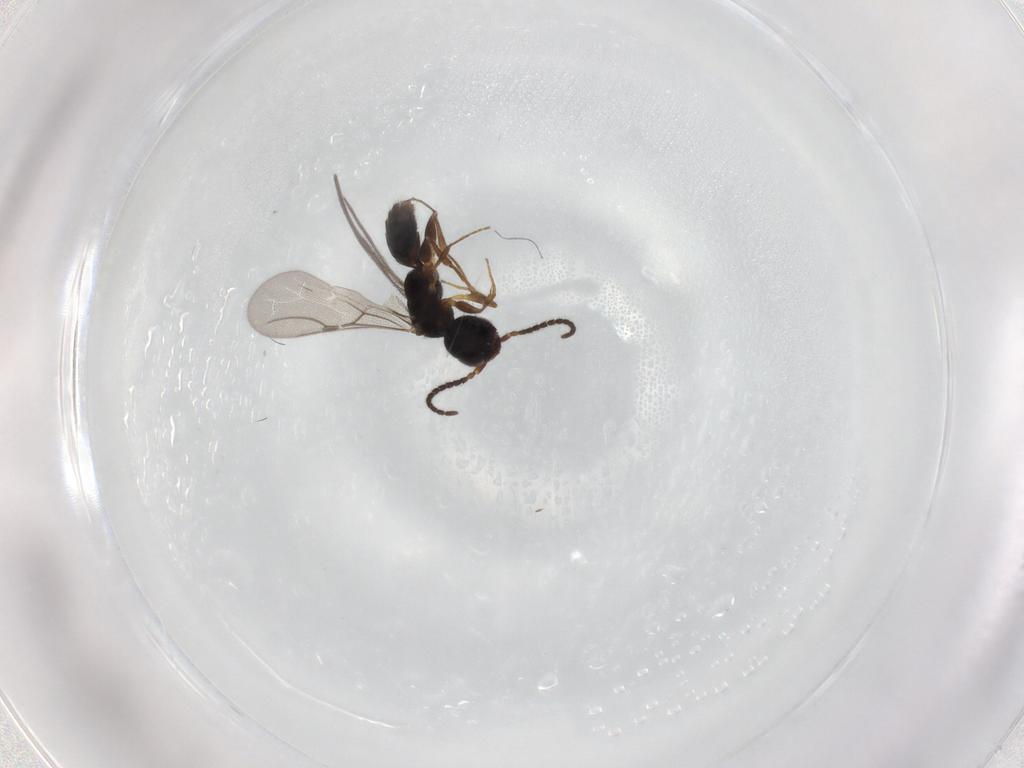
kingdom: Animalia
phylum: Arthropoda
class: Insecta
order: Hymenoptera
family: Bethylidae
